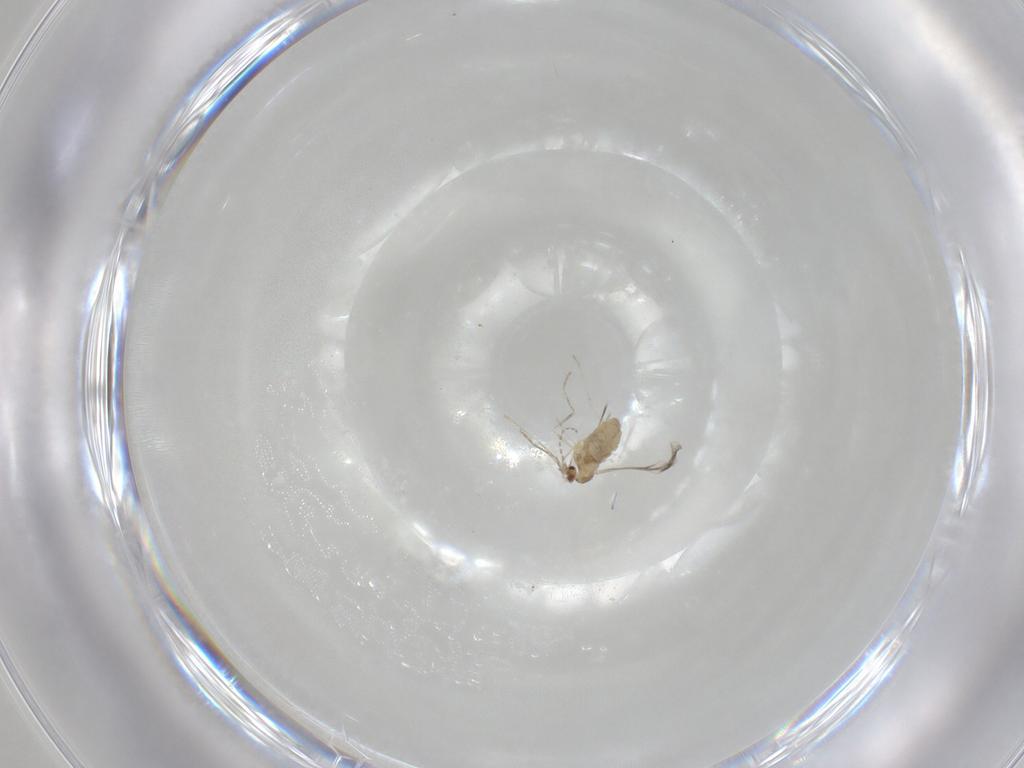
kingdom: Animalia
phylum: Arthropoda
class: Insecta
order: Diptera
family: Cecidomyiidae
